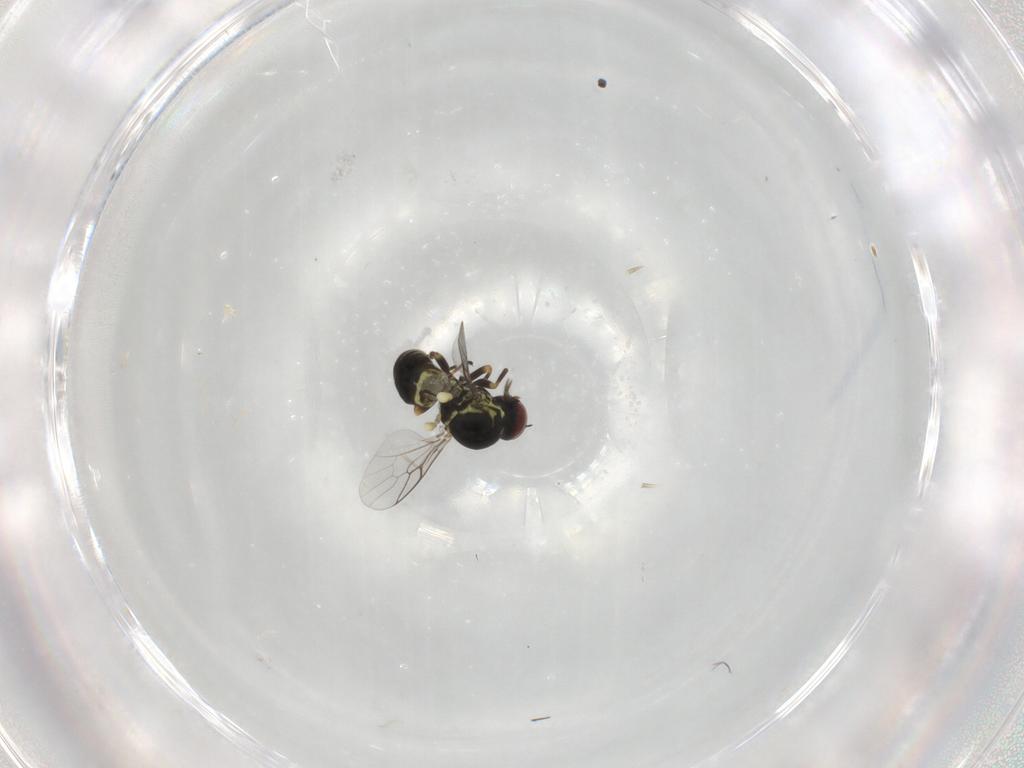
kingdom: Animalia
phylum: Arthropoda
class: Insecta
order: Diptera
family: Mythicomyiidae
